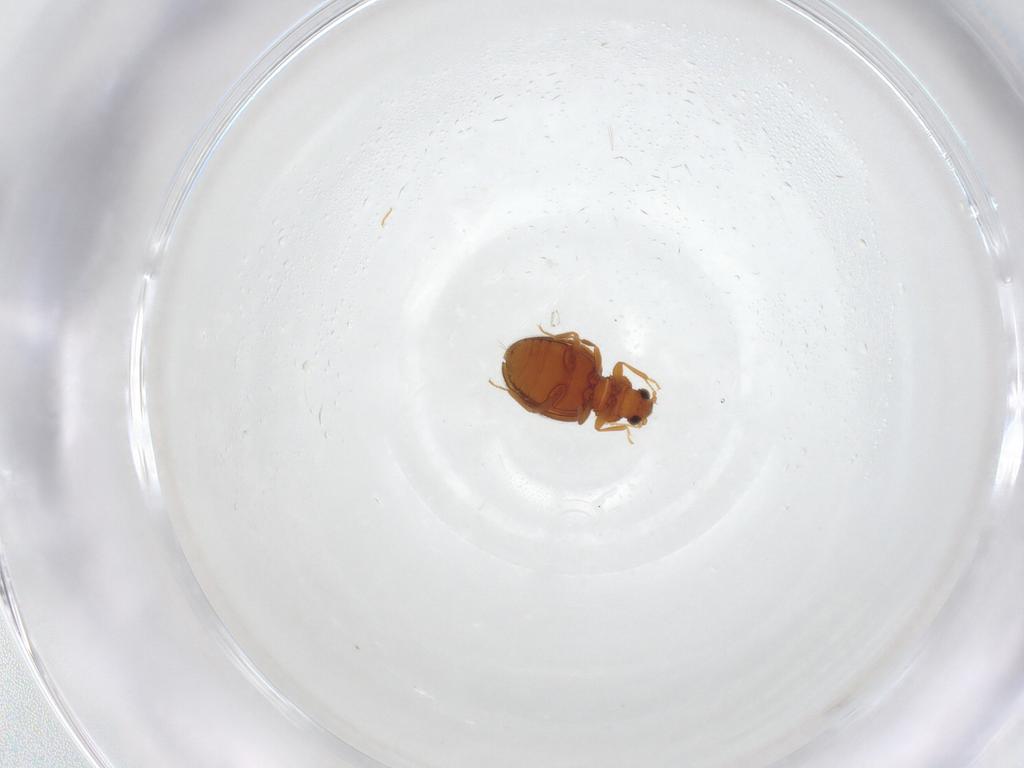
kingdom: Animalia
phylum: Arthropoda
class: Insecta
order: Coleoptera
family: Latridiidae
